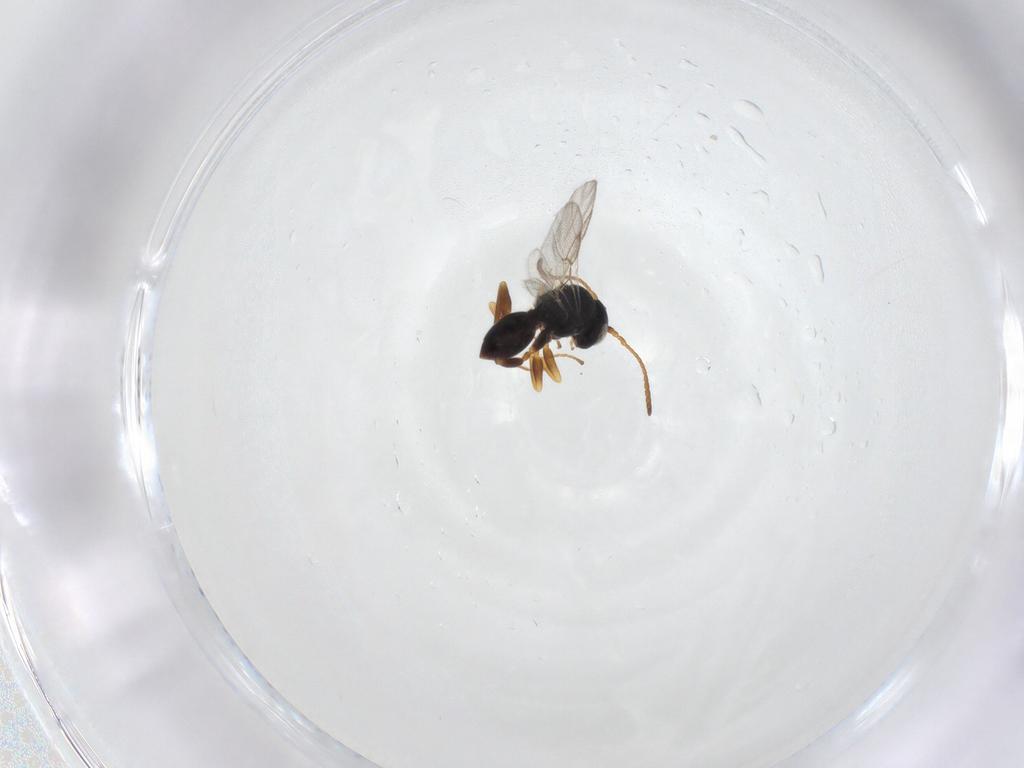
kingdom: Animalia
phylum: Arthropoda
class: Insecta
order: Hymenoptera
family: Cynipidae
